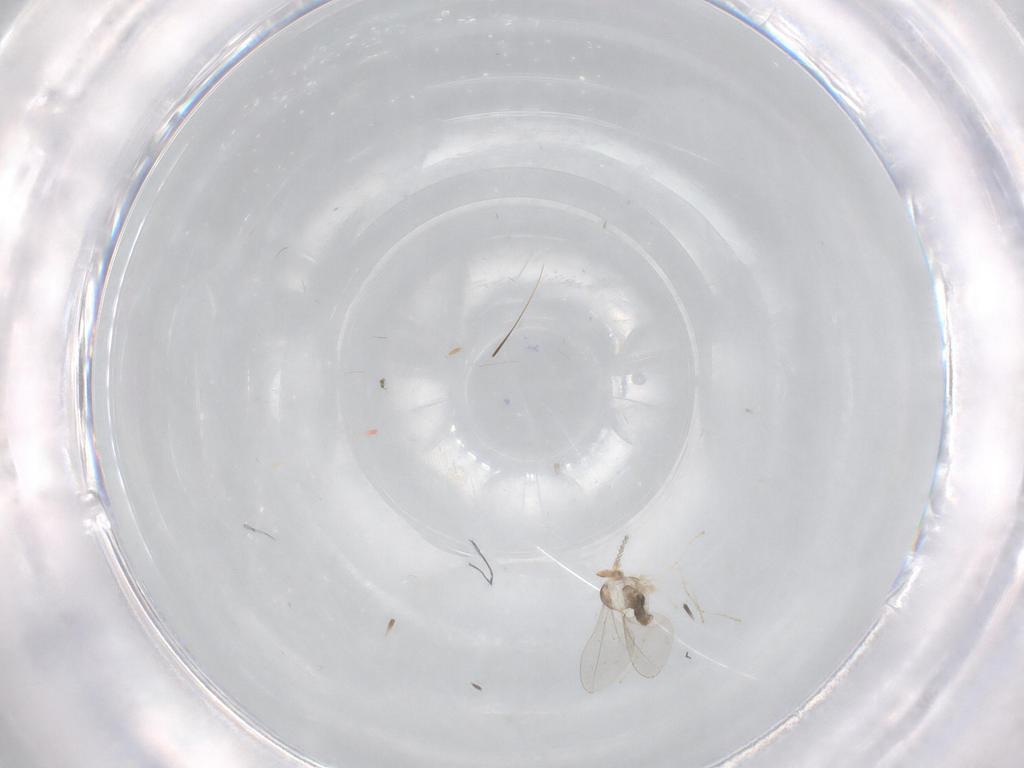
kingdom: Animalia
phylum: Arthropoda
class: Insecta
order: Diptera
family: Cecidomyiidae
